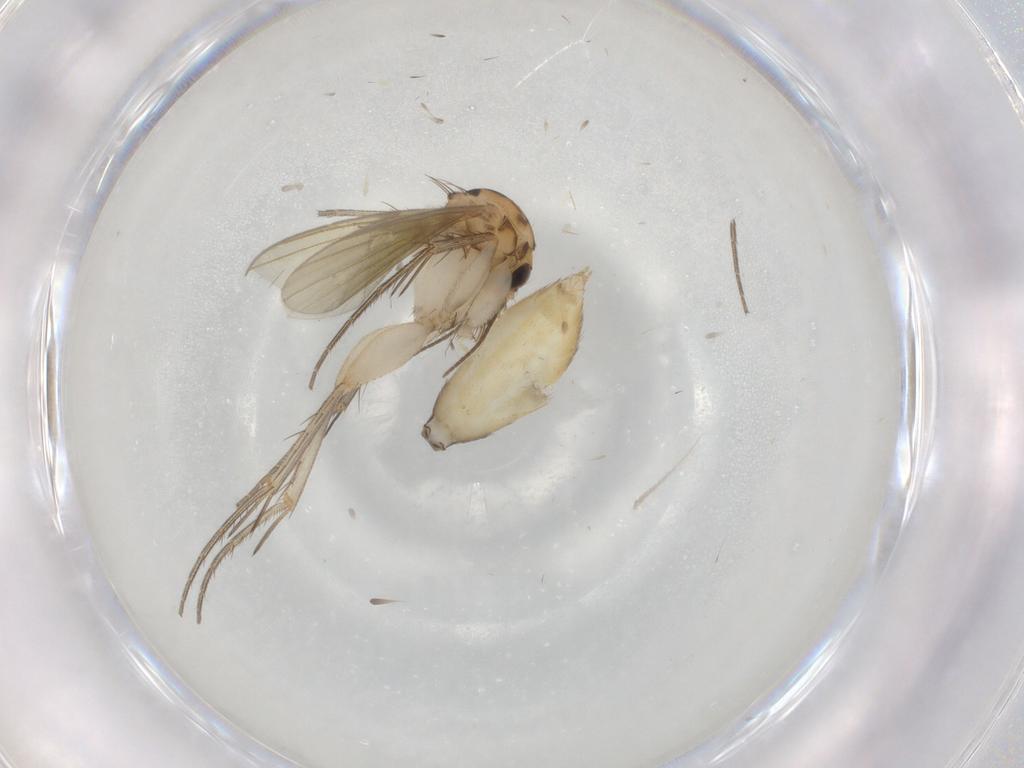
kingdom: Animalia
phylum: Arthropoda
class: Insecta
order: Diptera
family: Mycetophilidae
